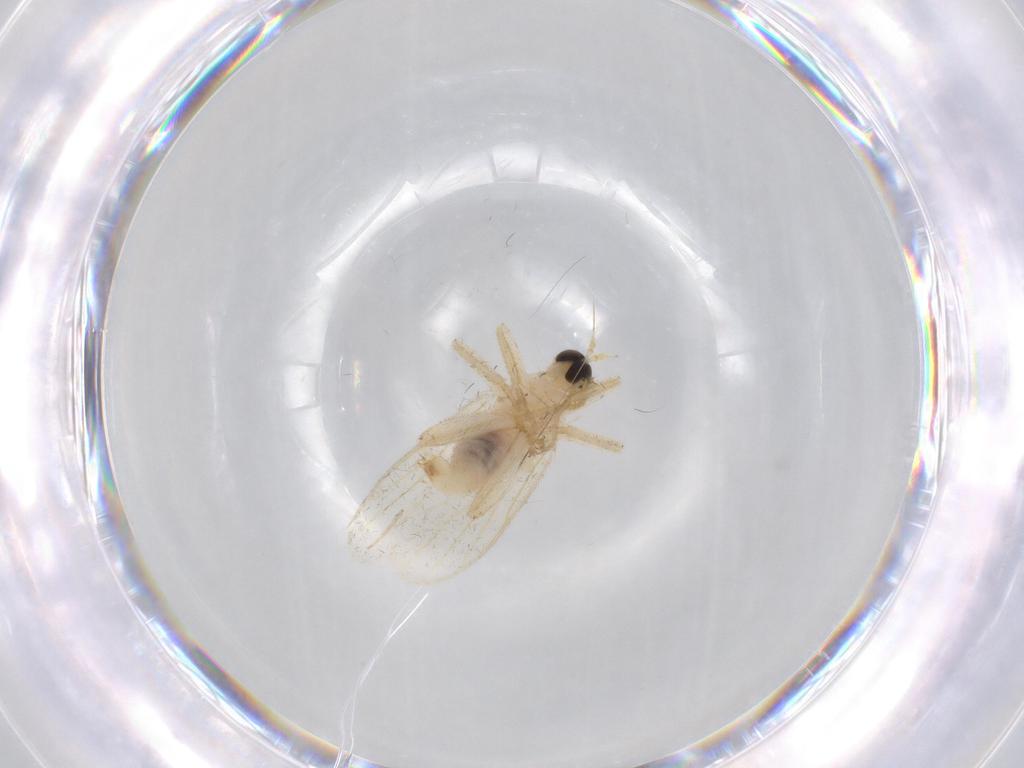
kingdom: Animalia
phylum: Arthropoda
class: Insecta
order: Diptera
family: Hybotidae
